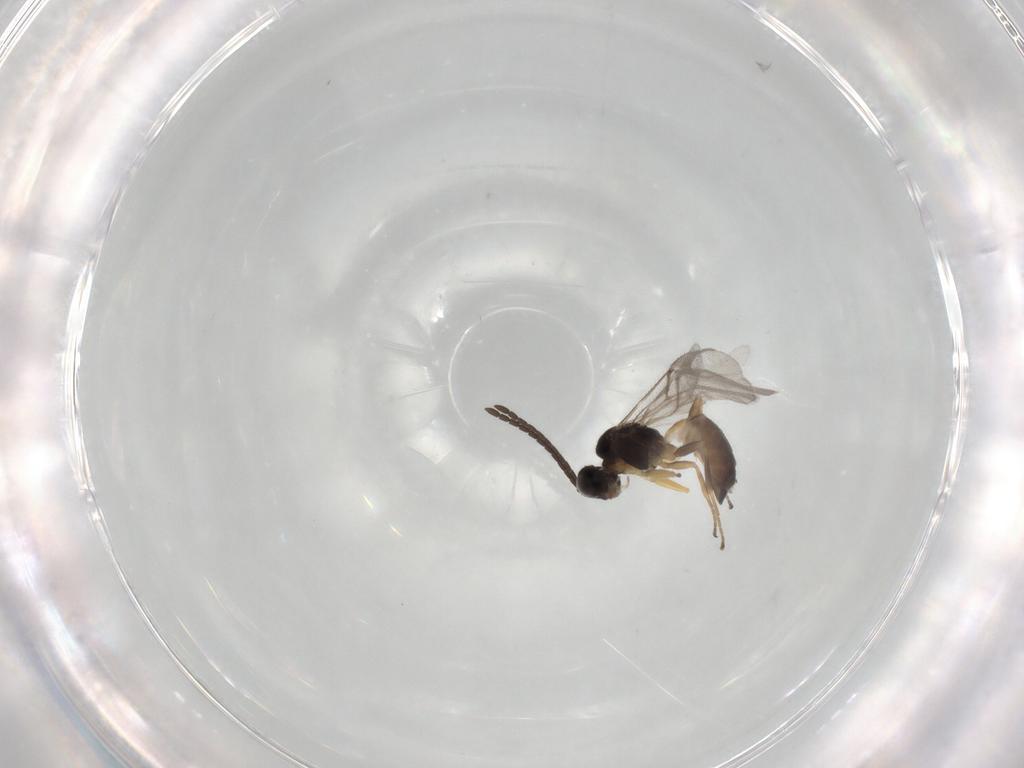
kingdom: Animalia
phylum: Arthropoda
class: Insecta
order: Hymenoptera
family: Braconidae
